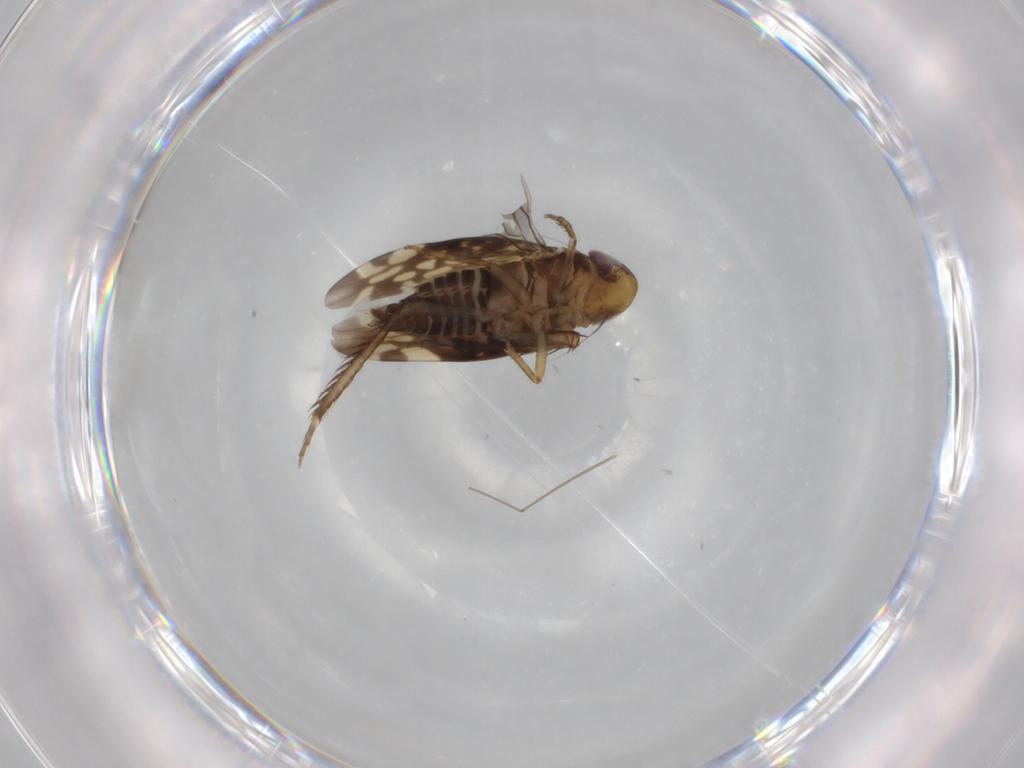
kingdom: Animalia
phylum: Arthropoda
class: Insecta
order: Hemiptera
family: Cicadellidae
